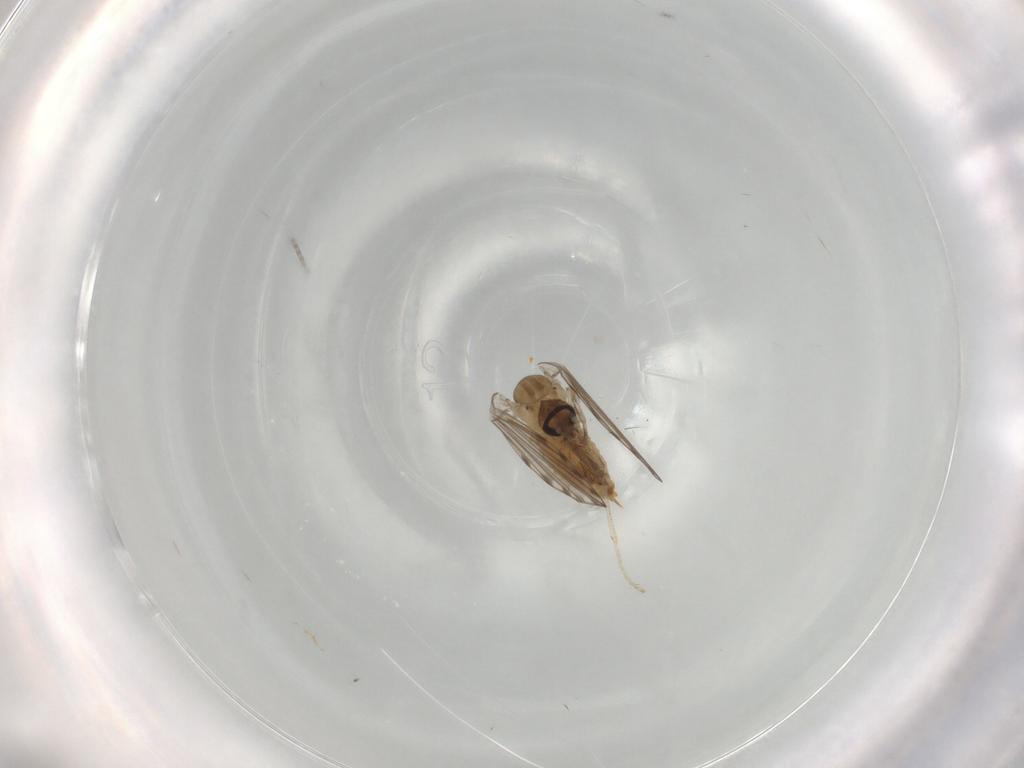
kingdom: Animalia
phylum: Arthropoda
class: Insecta
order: Diptera
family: Psychodidae
